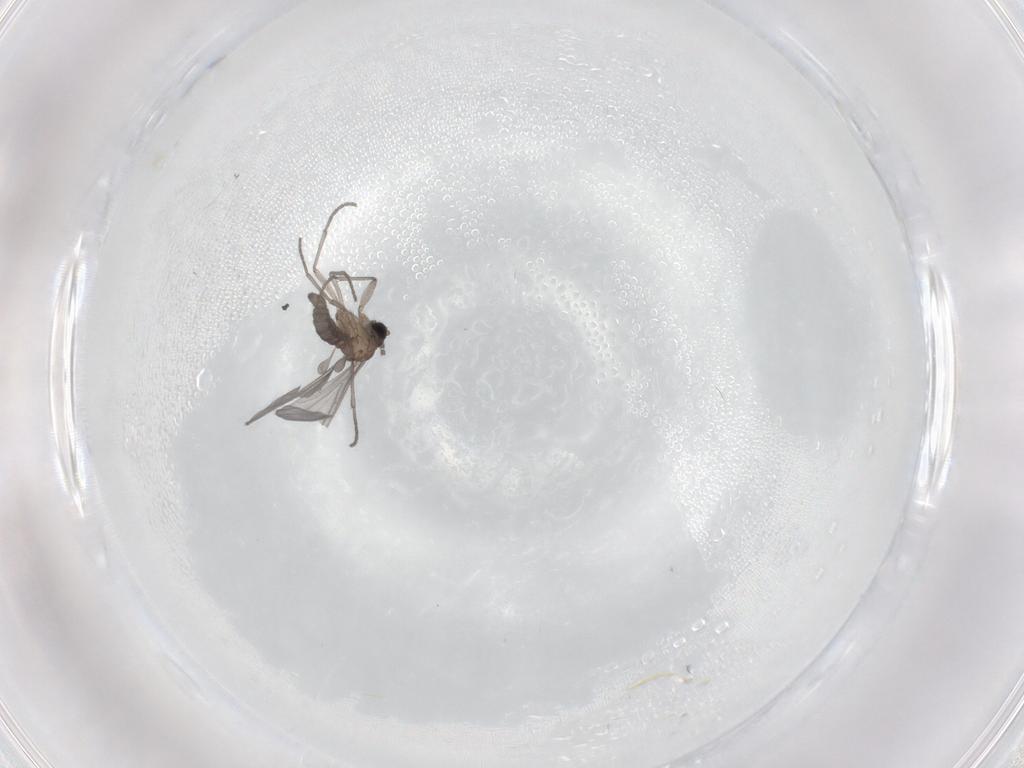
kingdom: Animalia
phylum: Arthropoda
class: Insecta
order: Diptera
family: Sciaridae
